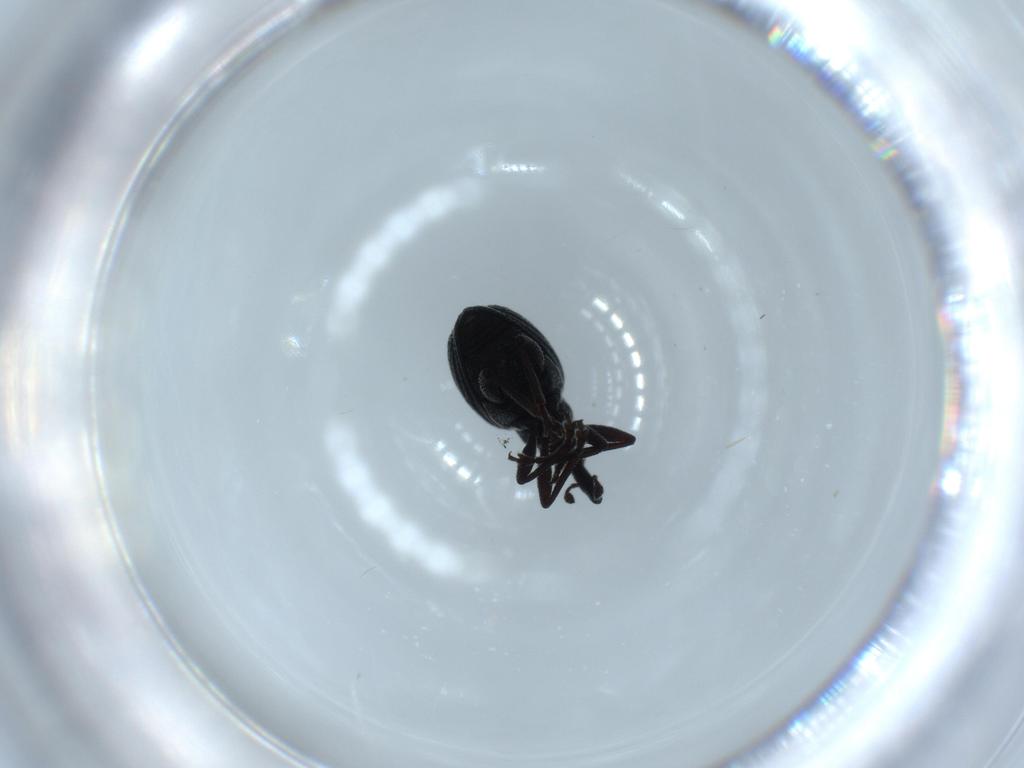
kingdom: Animalia
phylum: Arthropoda
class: Insecta
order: Coleoptera
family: Brentidae
